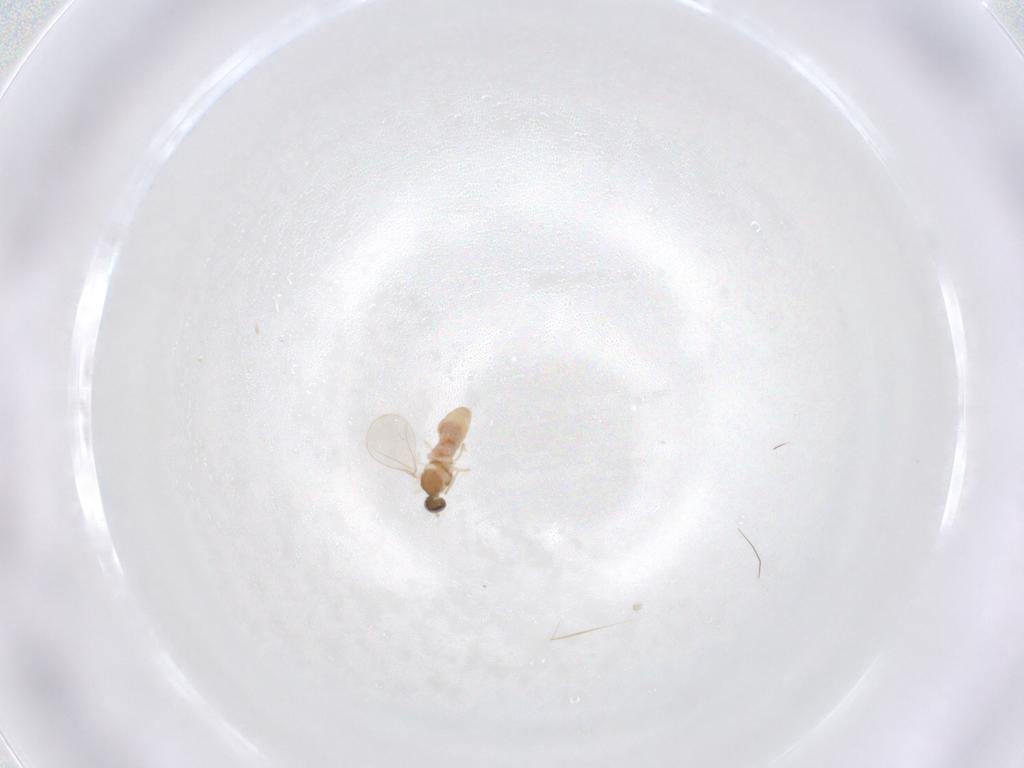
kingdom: Animalia
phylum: Arthropoda
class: Insecta
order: Diptera
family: Cecidomyiidae
